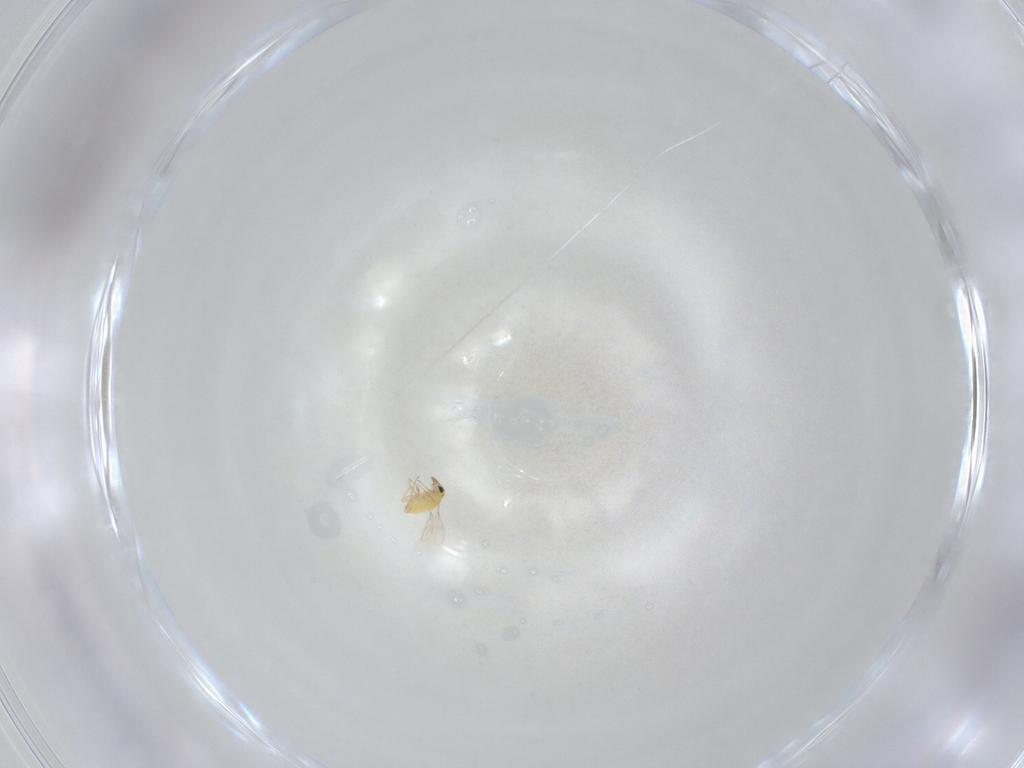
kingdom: Animalia
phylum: Arthropoda
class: Insecta
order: Hymenoptera
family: Trichogrammatidae
